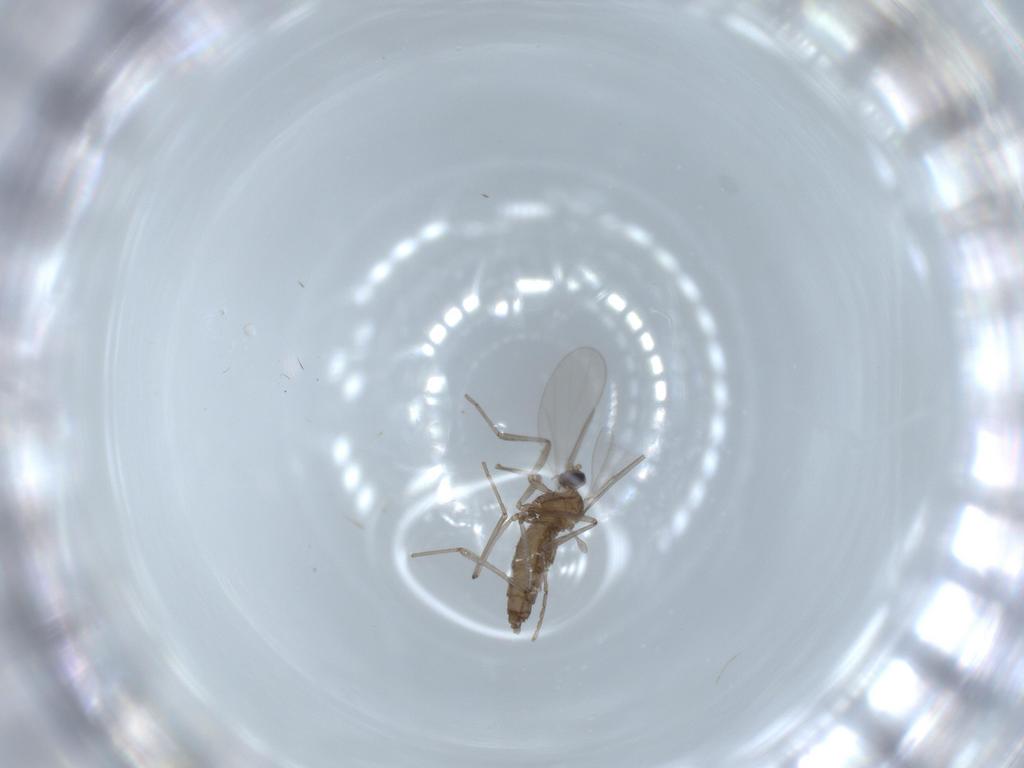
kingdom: Animalia
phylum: Arthropoda
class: Insecta
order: Diptera
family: Cecidomyiidae
